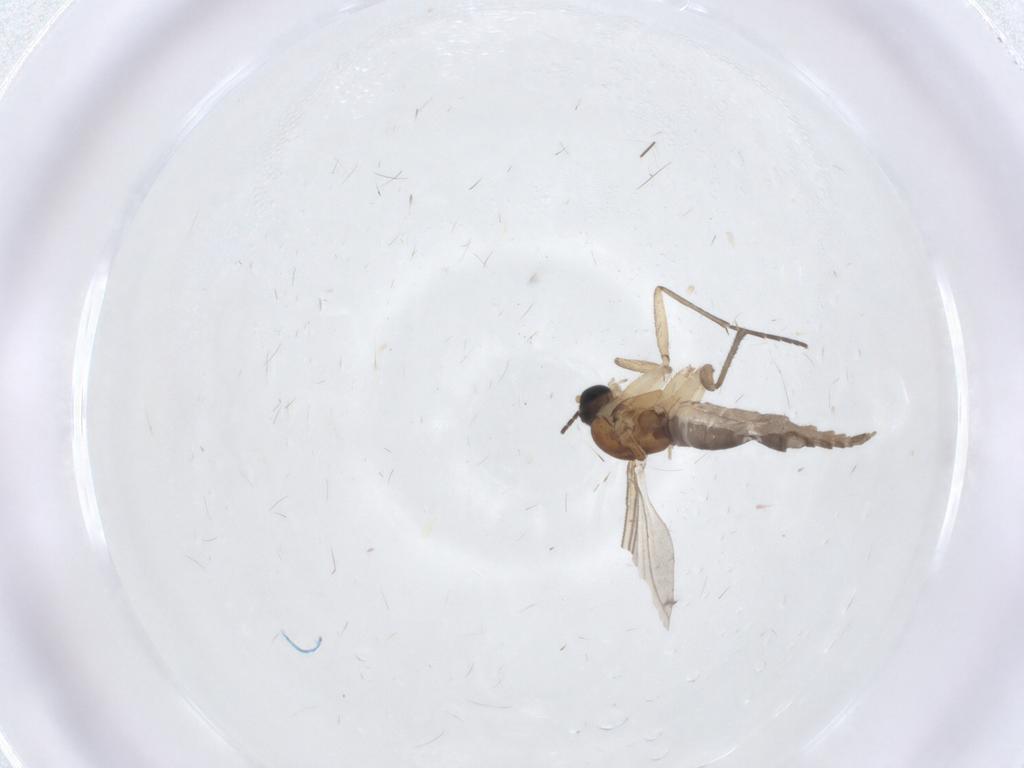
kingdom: Animalia
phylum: Arthropoda
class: Insecta
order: Diptera
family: Sciaridae
